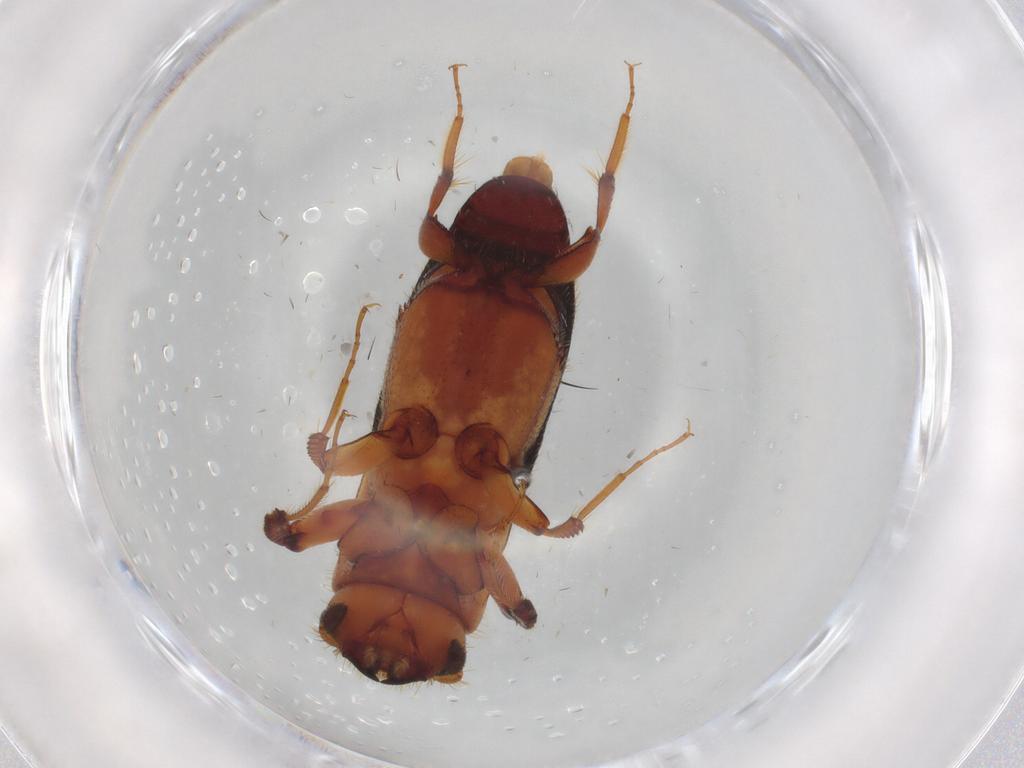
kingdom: Animalia
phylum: Arthropoda
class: Insecta
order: Coleoptera
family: Curculionidae
